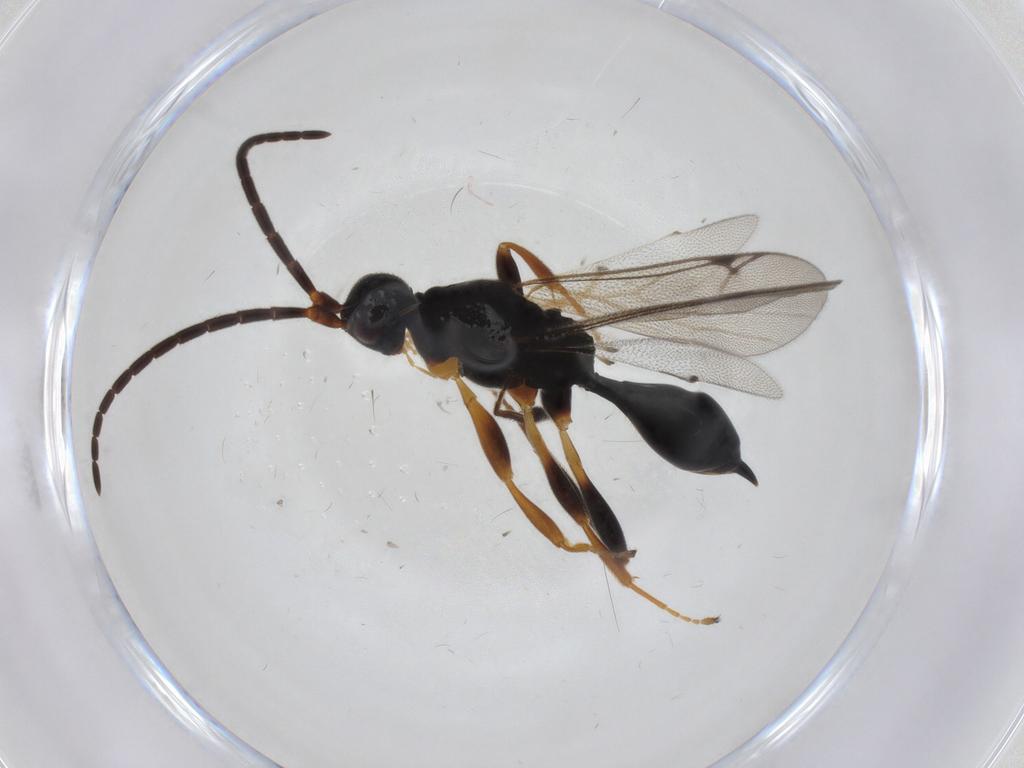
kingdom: Animalia
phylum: Arthropoda
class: Insecta
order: Hymenoptera
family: Proctotrupidae
